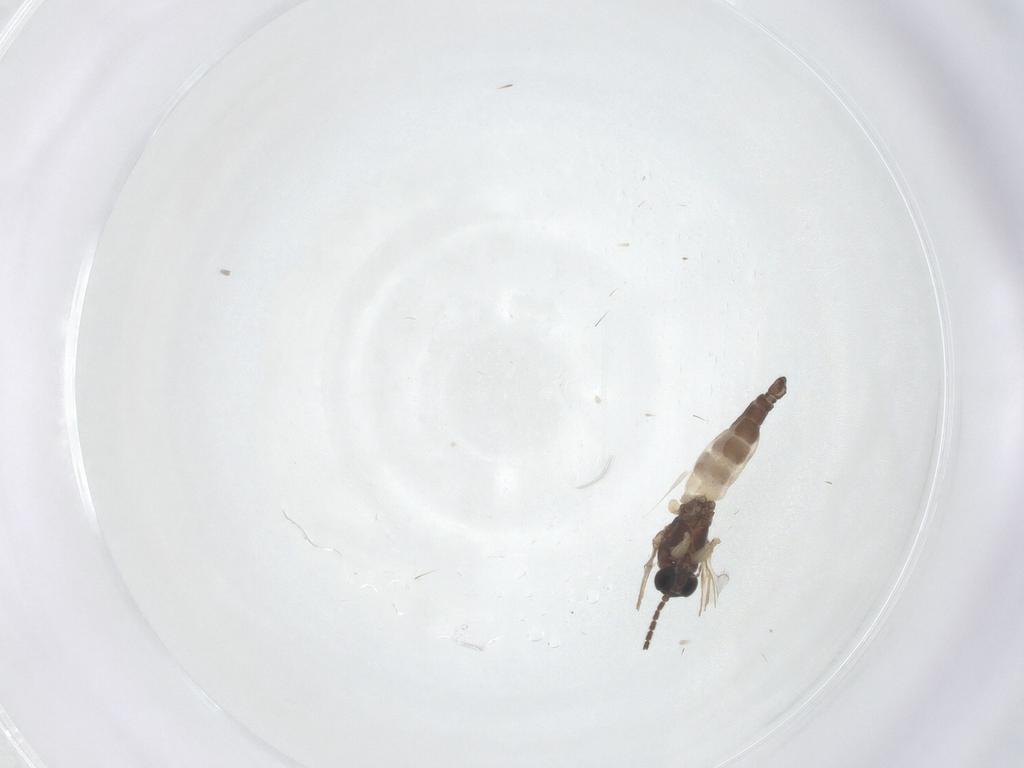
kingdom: Animalia
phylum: Arthropoda
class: Insecta
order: Diptera
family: Sciaridae
